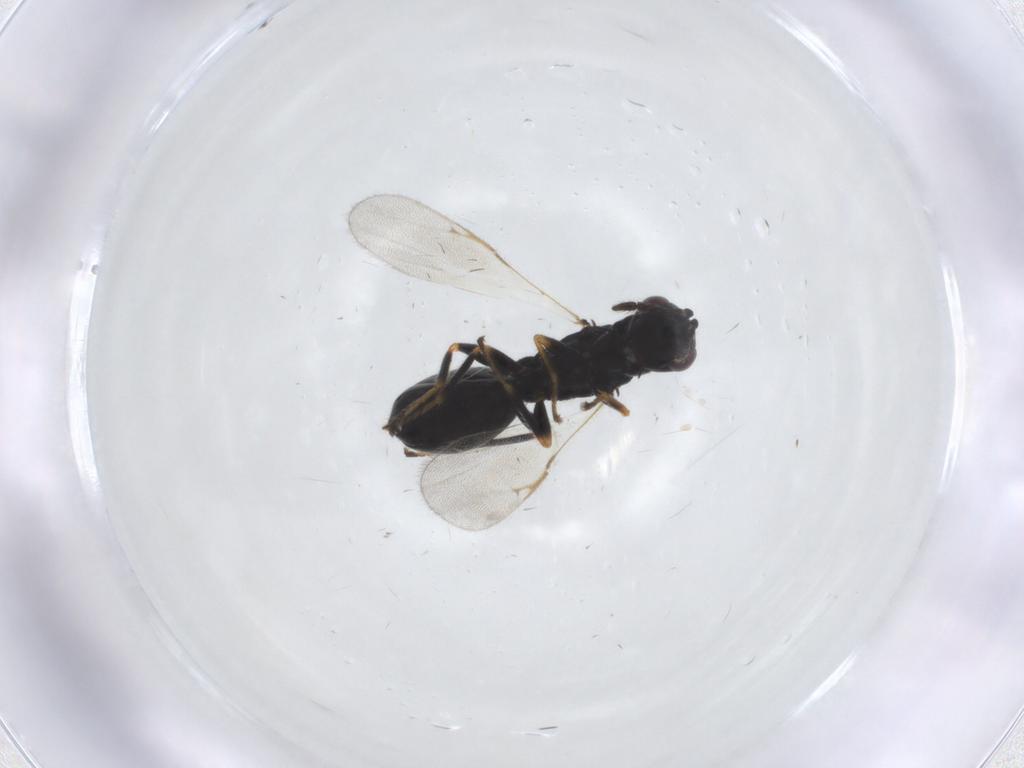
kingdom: Animalia
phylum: Arthropoda
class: Insecta
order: Hymenoptera
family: Eurytomidae
